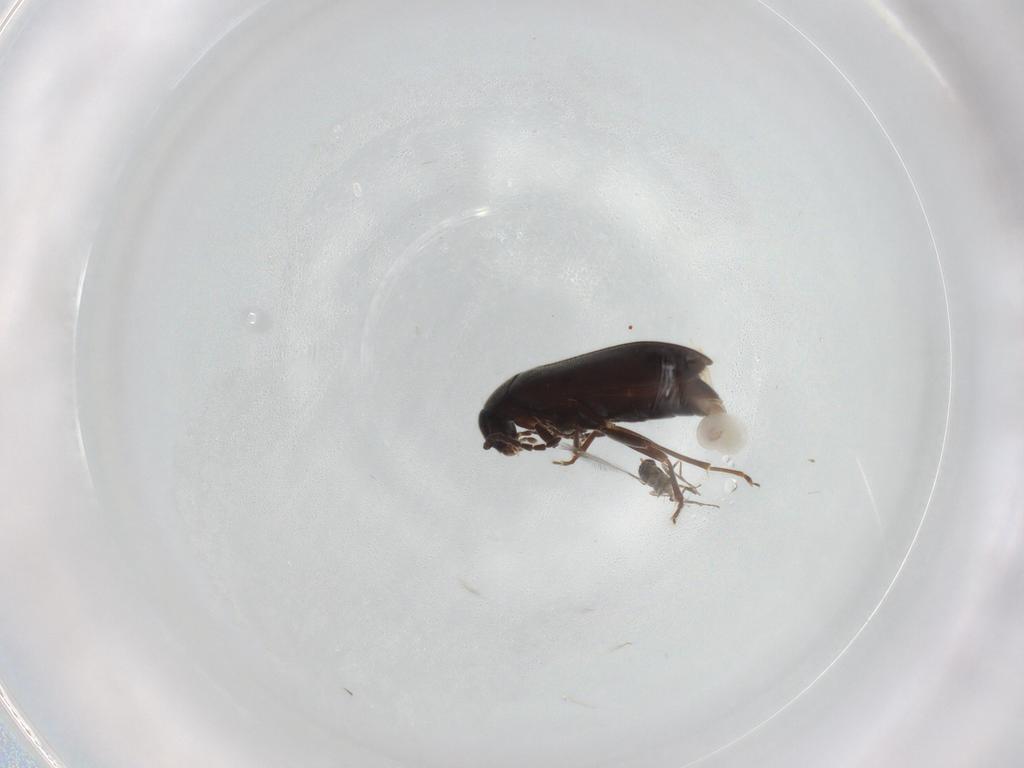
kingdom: Animalia
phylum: Arthropoda
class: Insecta
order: Coleoptera
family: Scraptiidae
